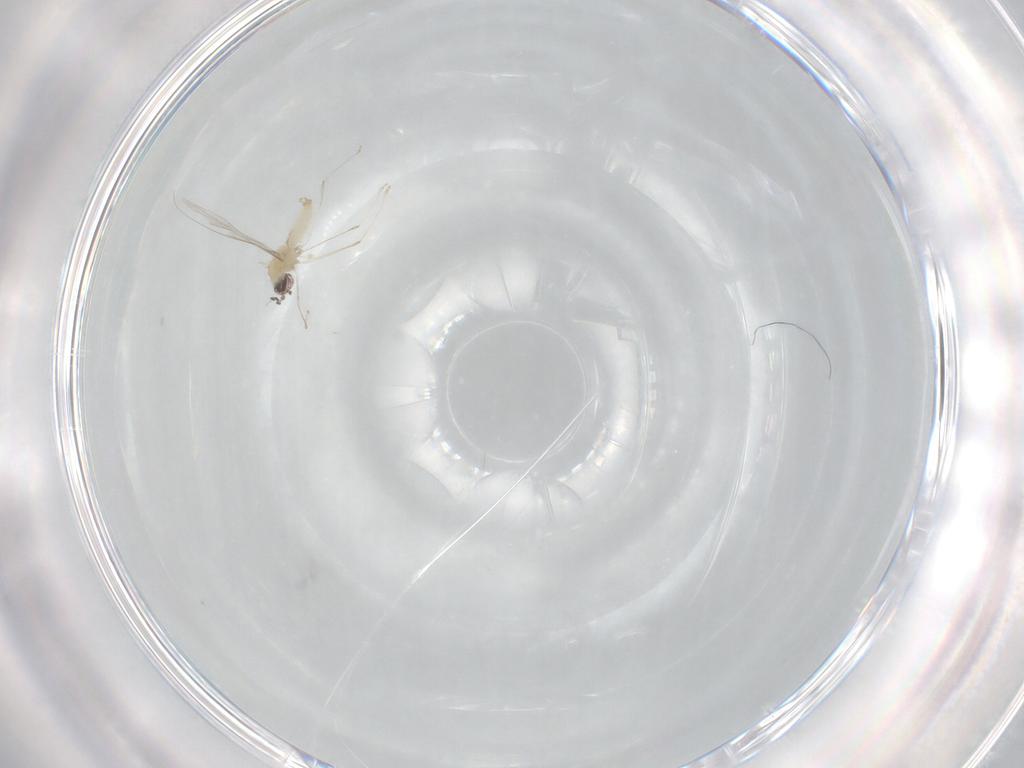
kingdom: Animalia
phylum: Arthropoda
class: Insecta
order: Diptera
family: Cecidomyiidae
